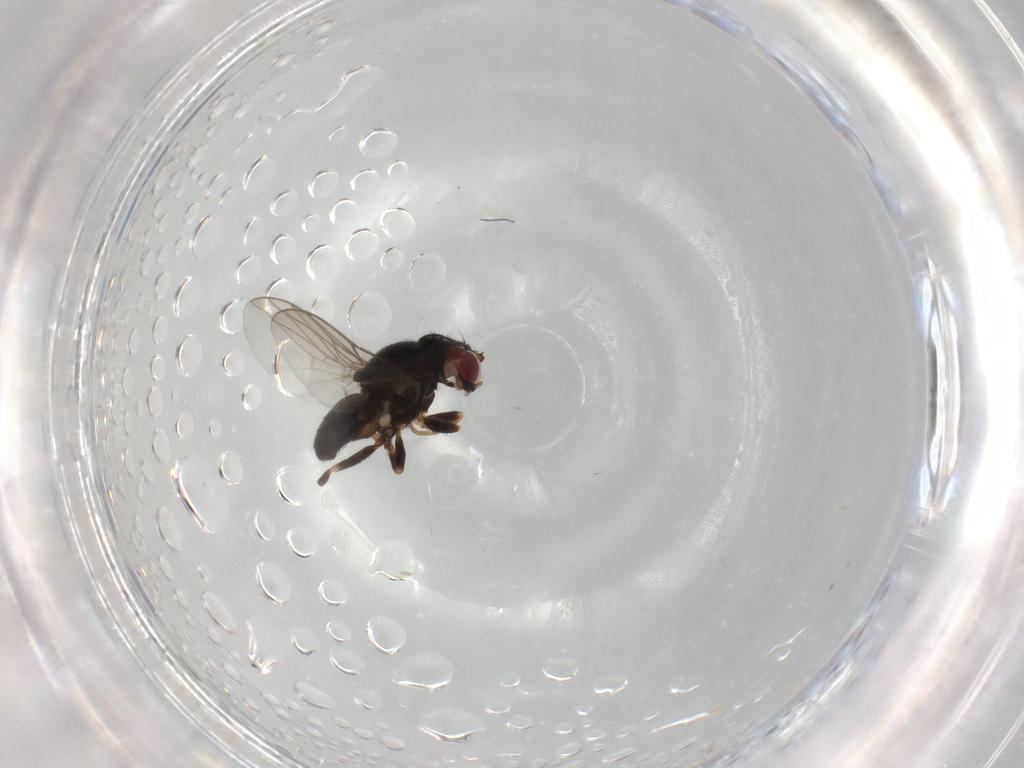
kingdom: Animalia
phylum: Arthropoda
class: Insecta
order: Diptera
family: Chloropidae
